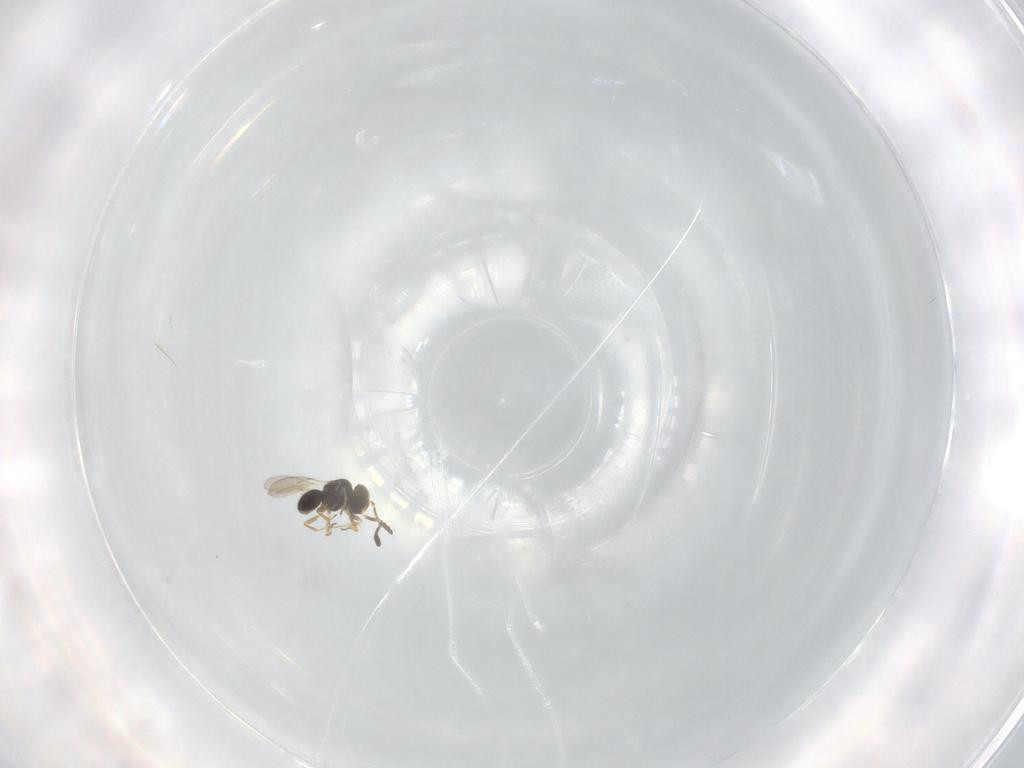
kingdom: Animalia
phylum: Arthropoda
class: Insecta
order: Hymenoptera
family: Scelionidae
